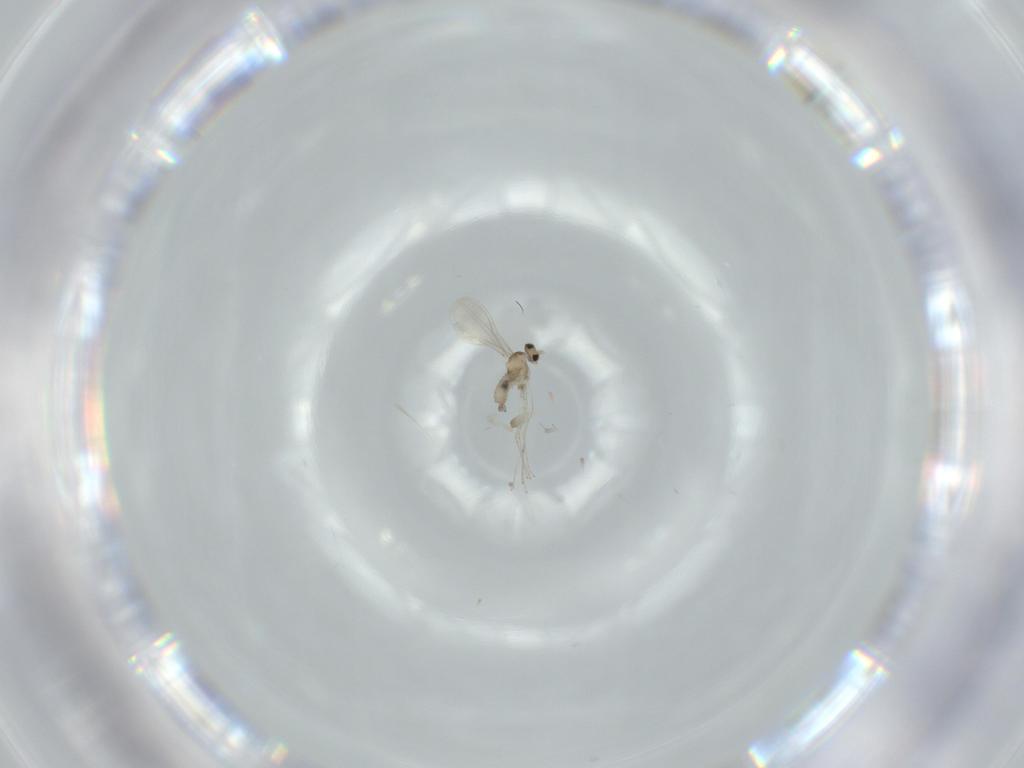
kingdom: Animalia
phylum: Arthropoda
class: Insecta
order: Diptera
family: Cecidomyiidae
